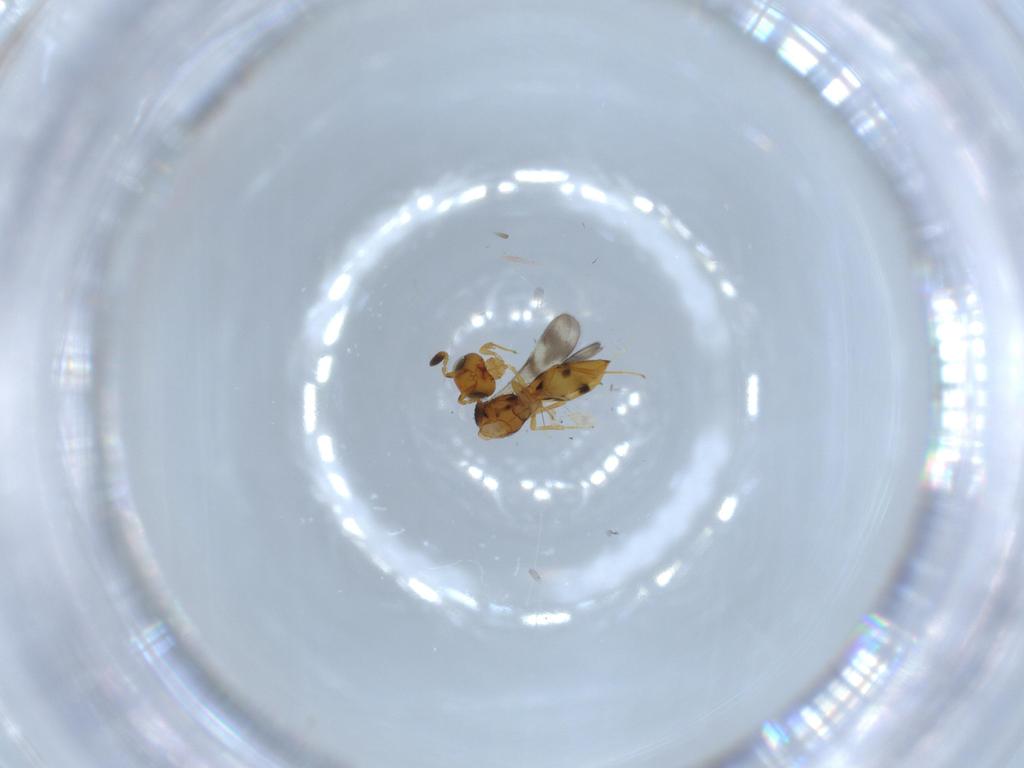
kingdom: Animalia
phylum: Arthropoda
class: Insecta
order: Hymenoptera
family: Scelionidae
